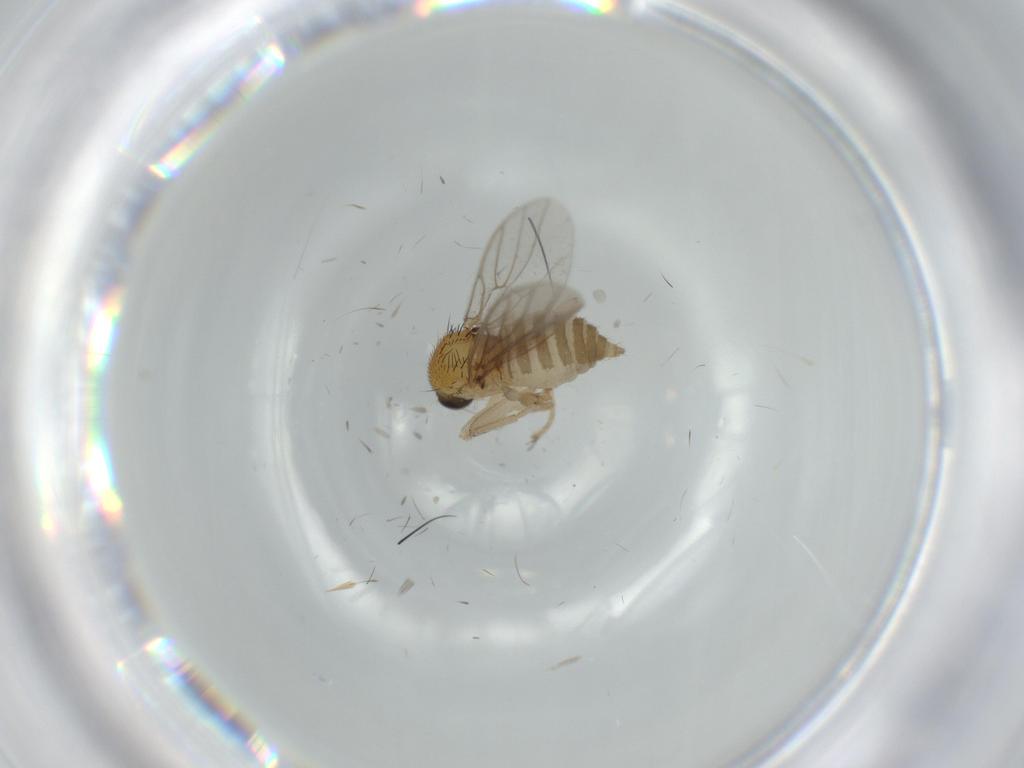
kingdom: Animalia
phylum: Arthropoda
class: Insecta
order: Diptera
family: Hybotidae
